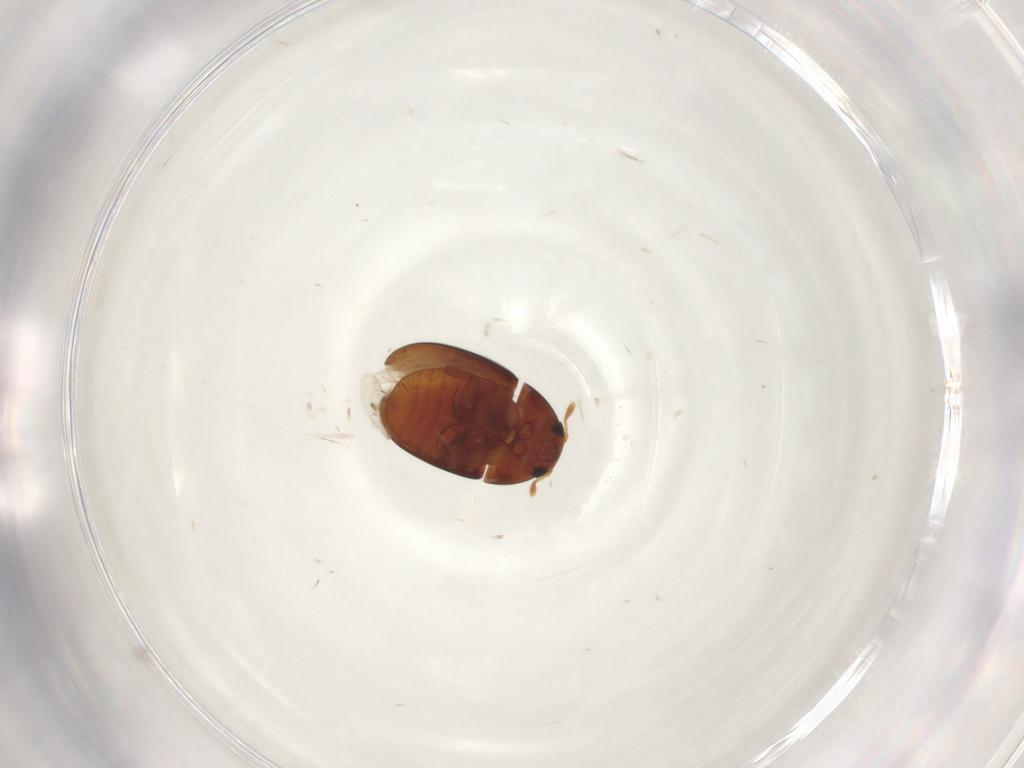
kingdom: Animalia
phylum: Arthropoda
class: Insecta
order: Coleoptera
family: Phalacridae
